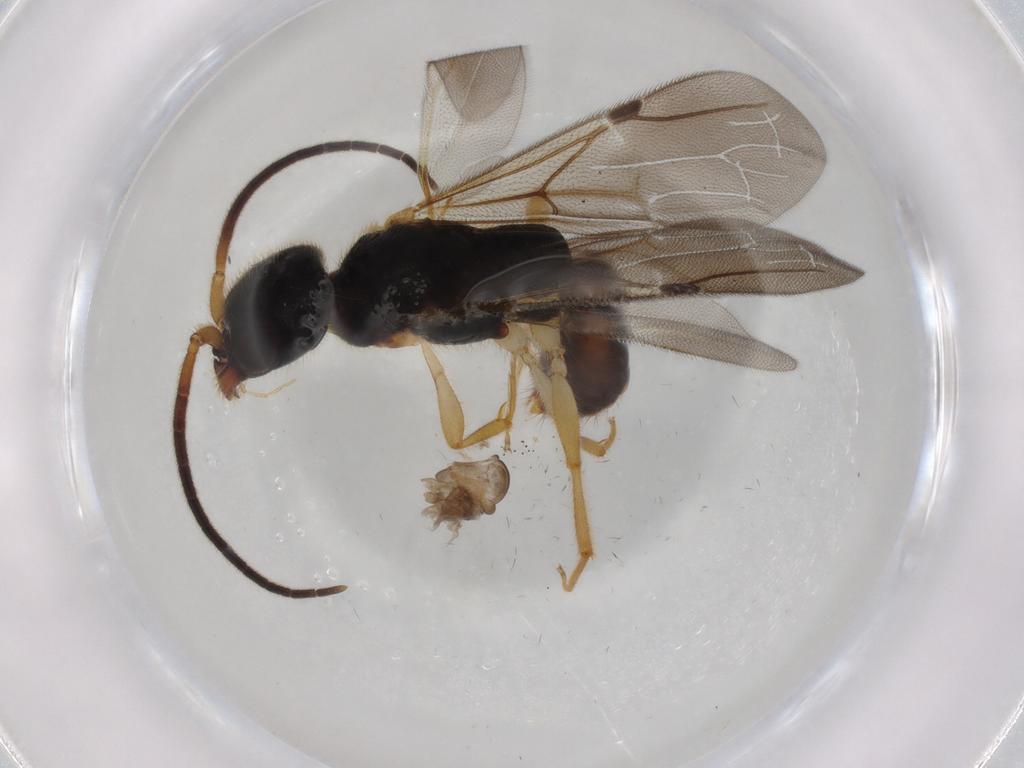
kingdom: Animalia
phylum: Arthropoda
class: Insecta
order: Hymenoptera
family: Bethylidae
